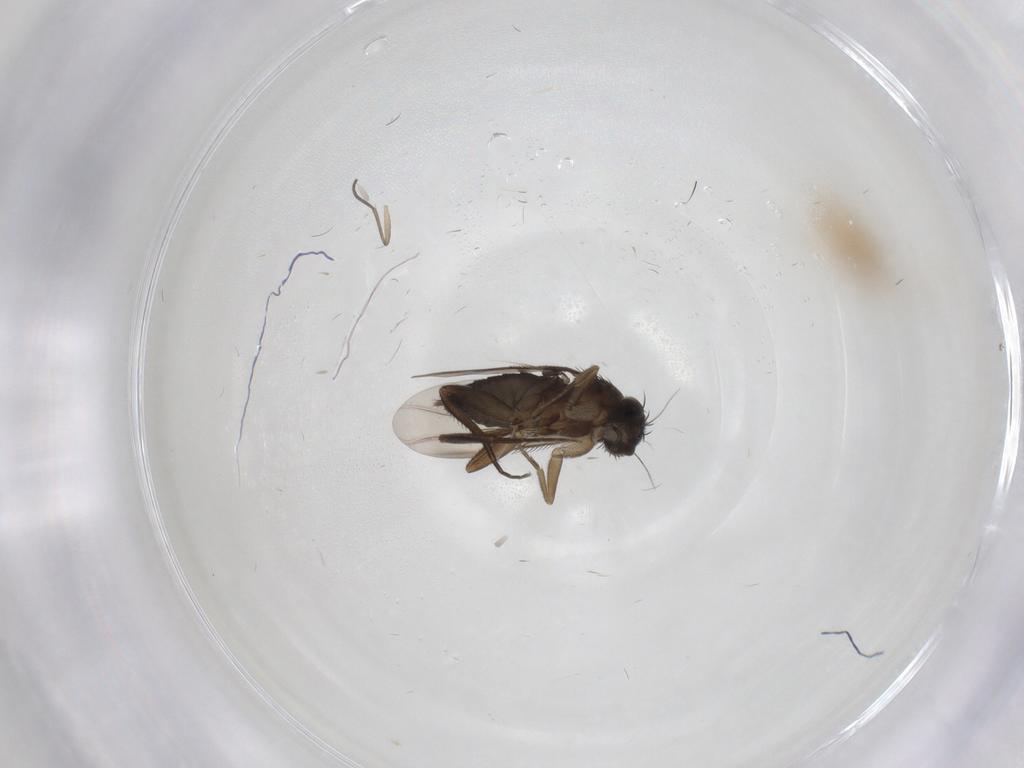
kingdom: Animalia
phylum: Arthropoda
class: Insecta
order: Diptera
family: Phoridae
